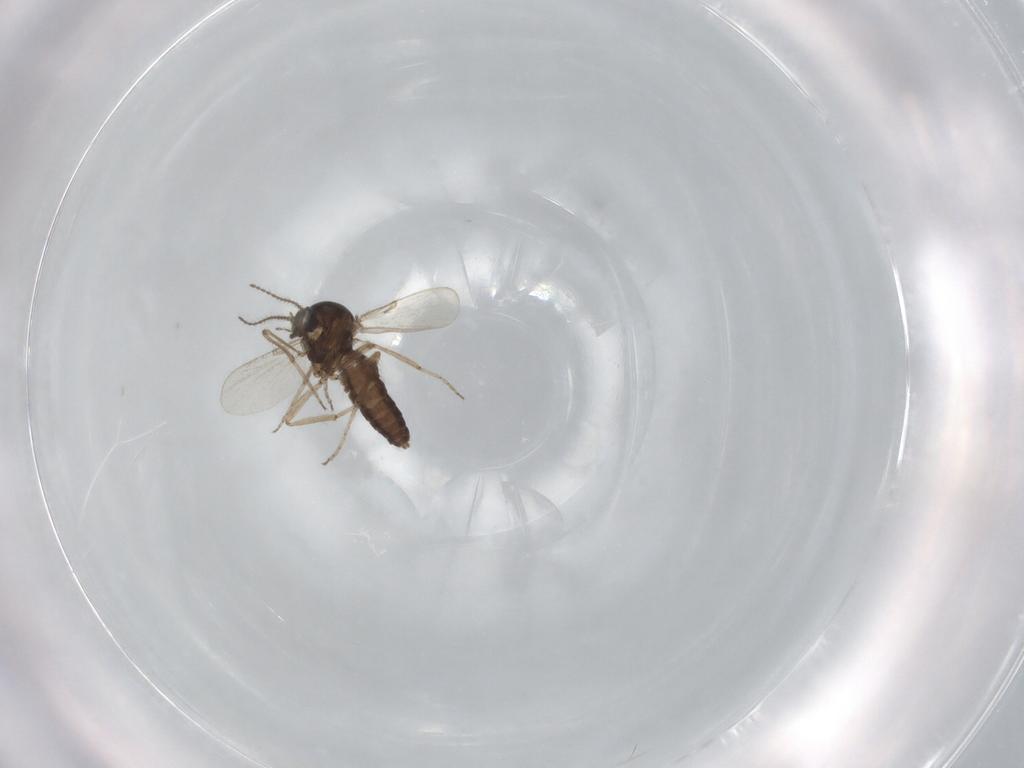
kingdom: Animalia
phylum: Arthropoda
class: Insecta
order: Diptera
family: Ceratopogonidae
